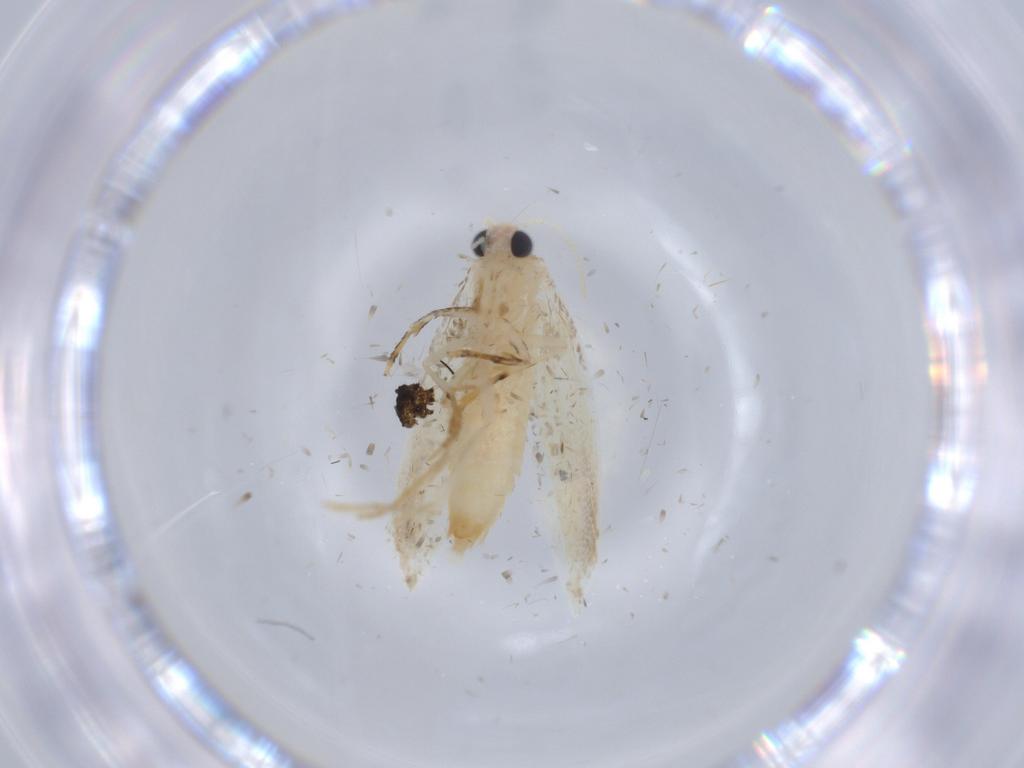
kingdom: Animalia
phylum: Arthropoda
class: Insecta
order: Lepidoptera
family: Tineidae
